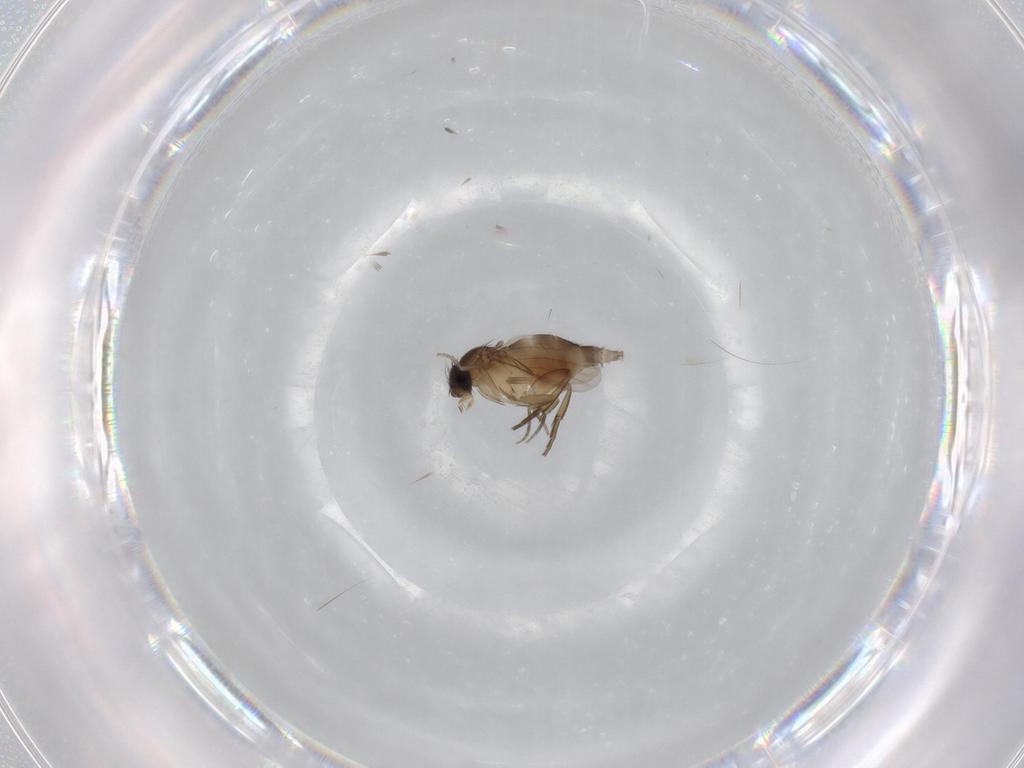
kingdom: Animalia
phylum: Arthropoda
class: Insecta
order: Diptera
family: Phoridae
